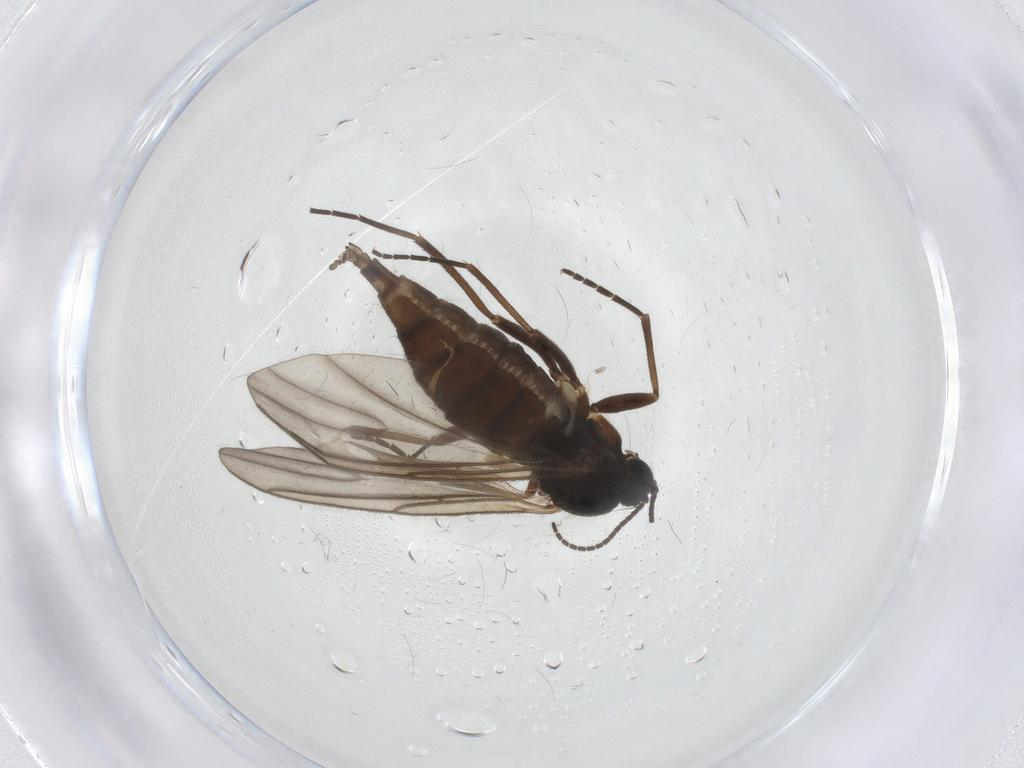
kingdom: Animalia
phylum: Arthropoda
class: Insecta
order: Diptera
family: Sciaridae
